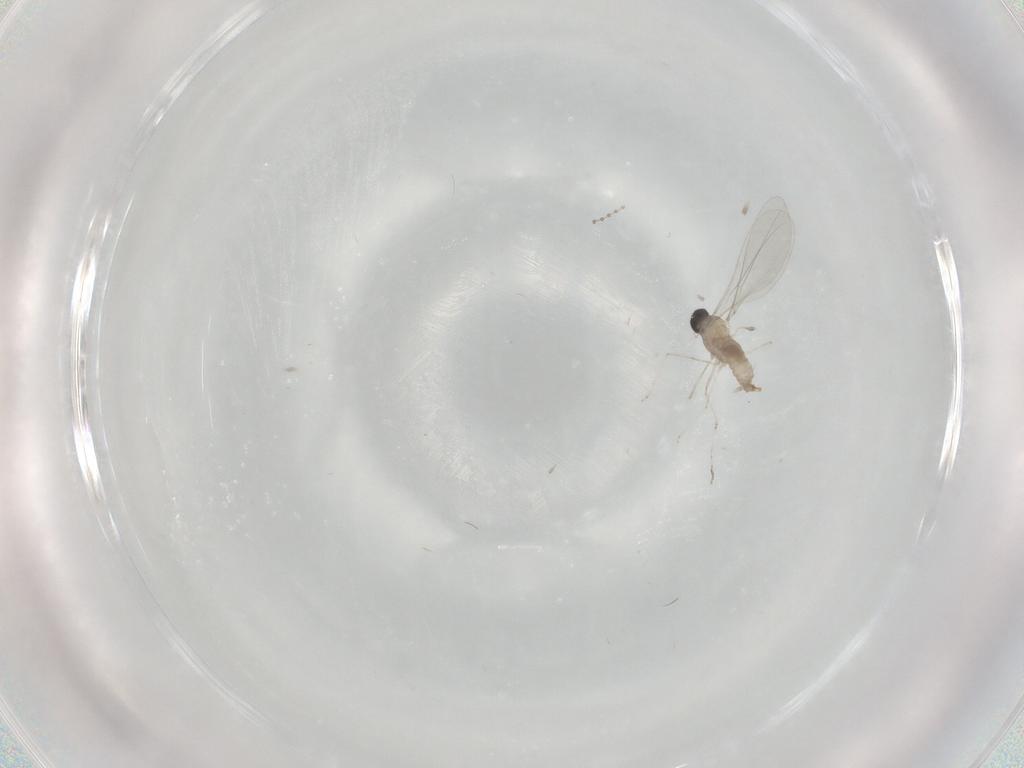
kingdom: Animalia
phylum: Arthropoda
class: Insecta
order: Diptera
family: Cecidomyiidae
